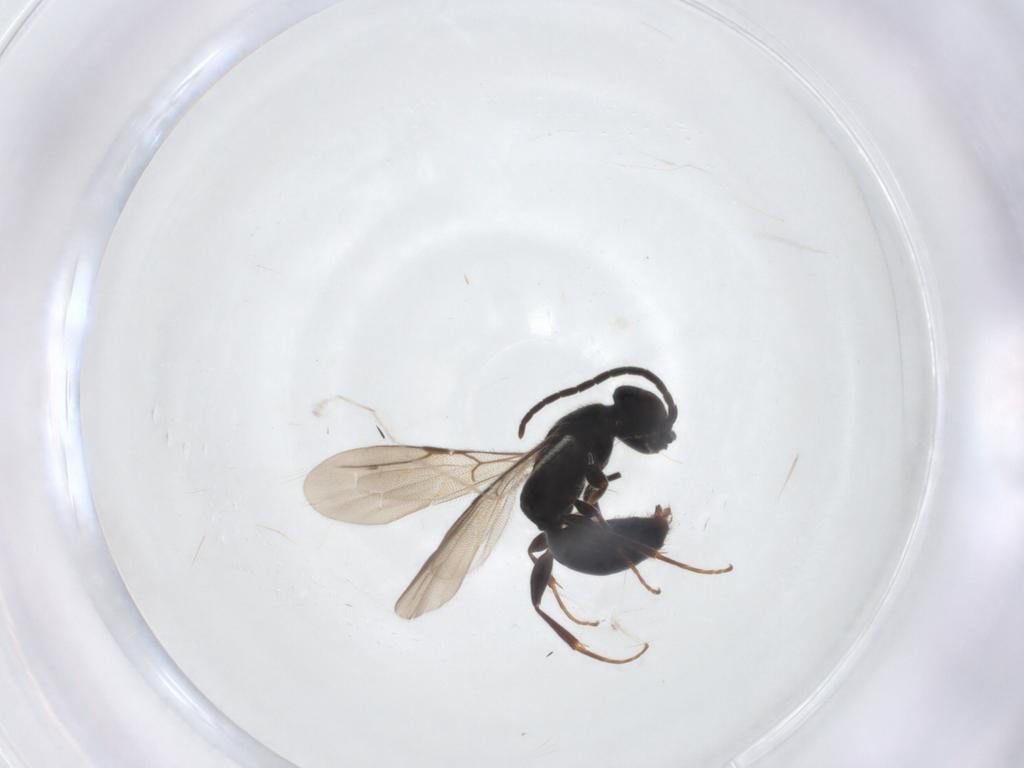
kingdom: Animalia
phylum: Arthropoda
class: Insecta
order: Hymenoptera
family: Bethylidae
